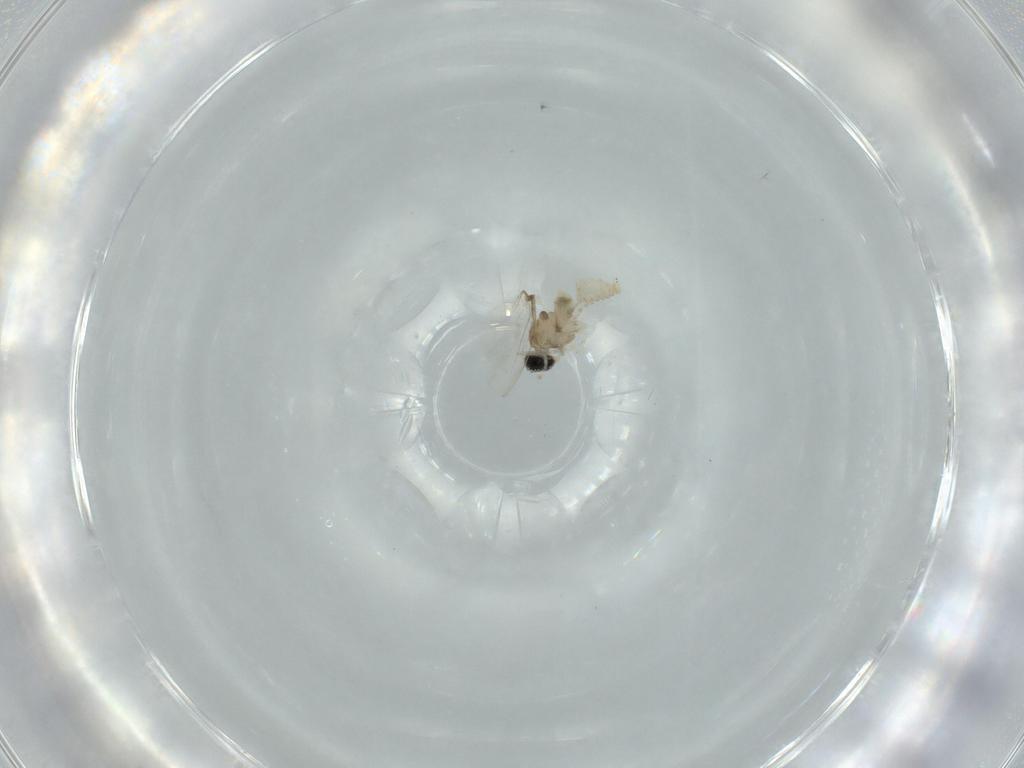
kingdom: Animalia
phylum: Arthropoda
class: Insecta
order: Diptera
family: Cecidomyiidae
